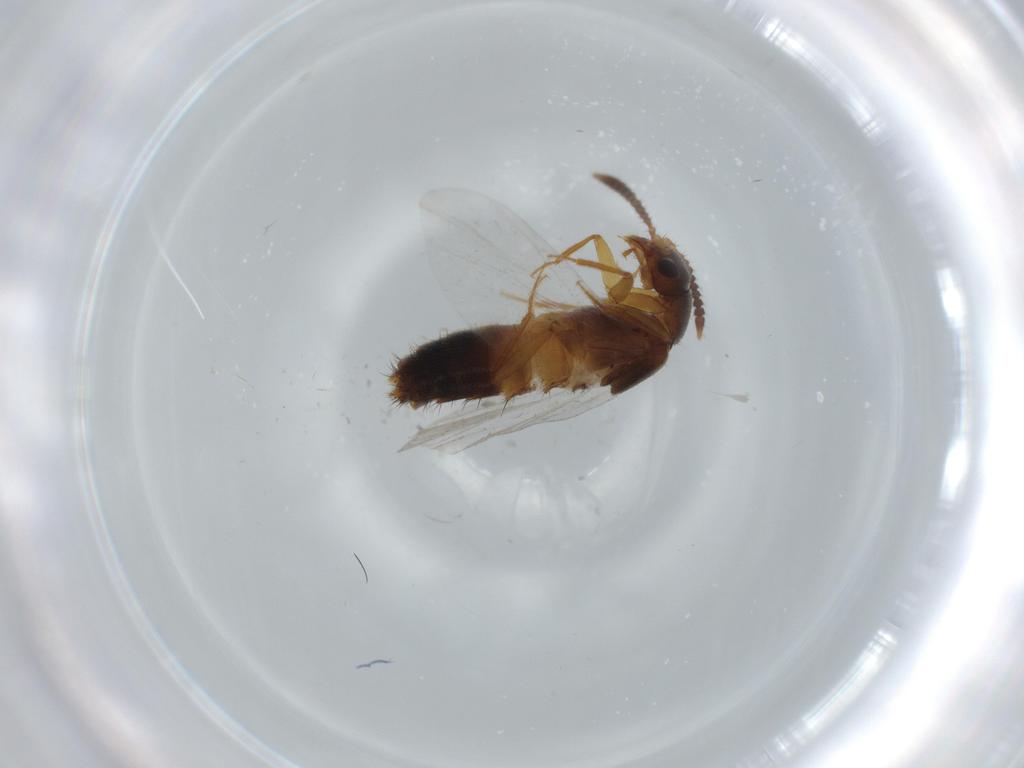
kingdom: Animalia
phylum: Arthropoda
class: Insecta
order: Coleoptera
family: Staphylinidae
